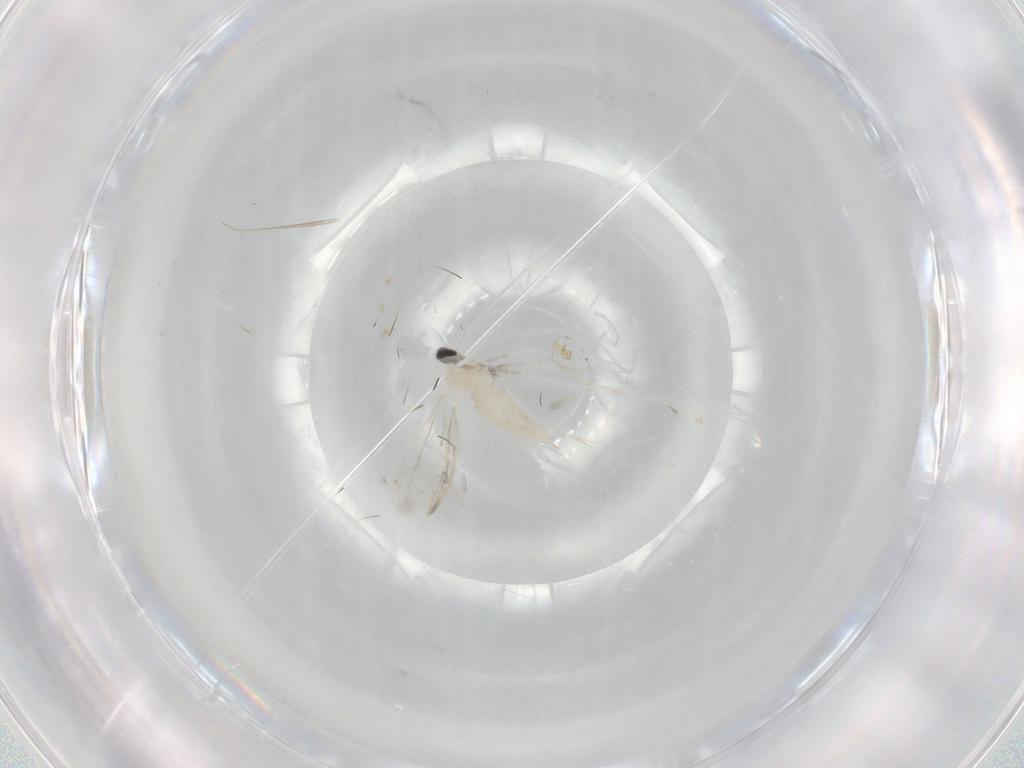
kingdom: Animalia
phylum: Arthropoda
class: Insecta
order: Diptera
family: Cecidomyiidae
